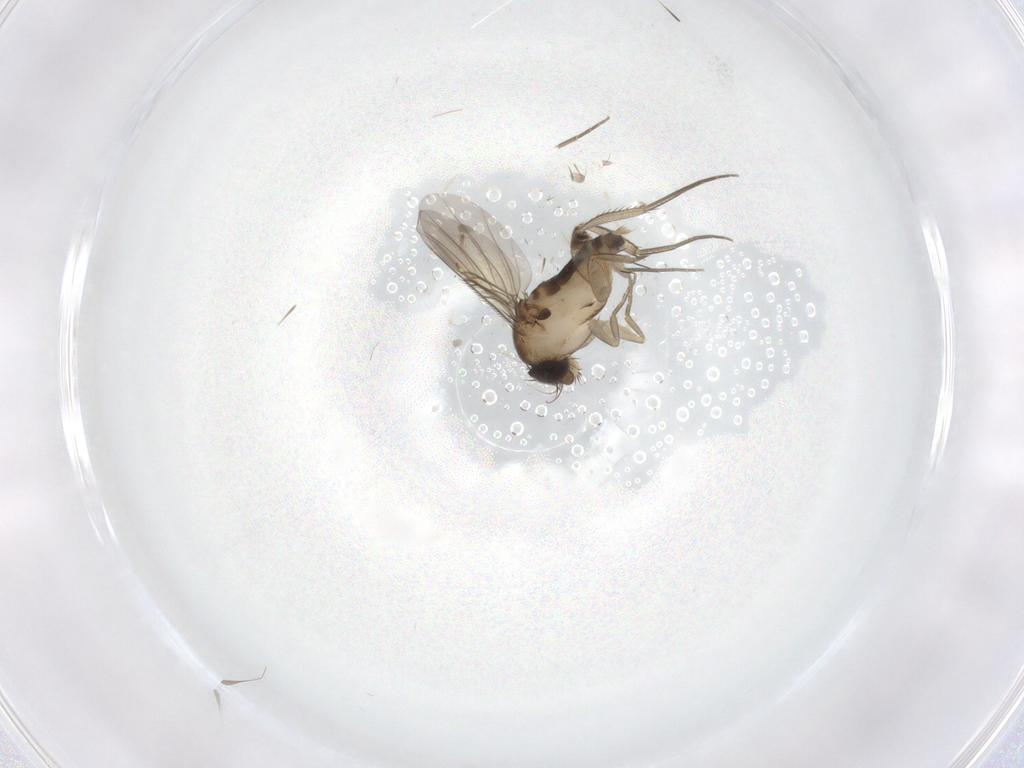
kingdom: Animalia
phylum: Arthropoda
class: Insecta
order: Diptera
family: Phoridae
